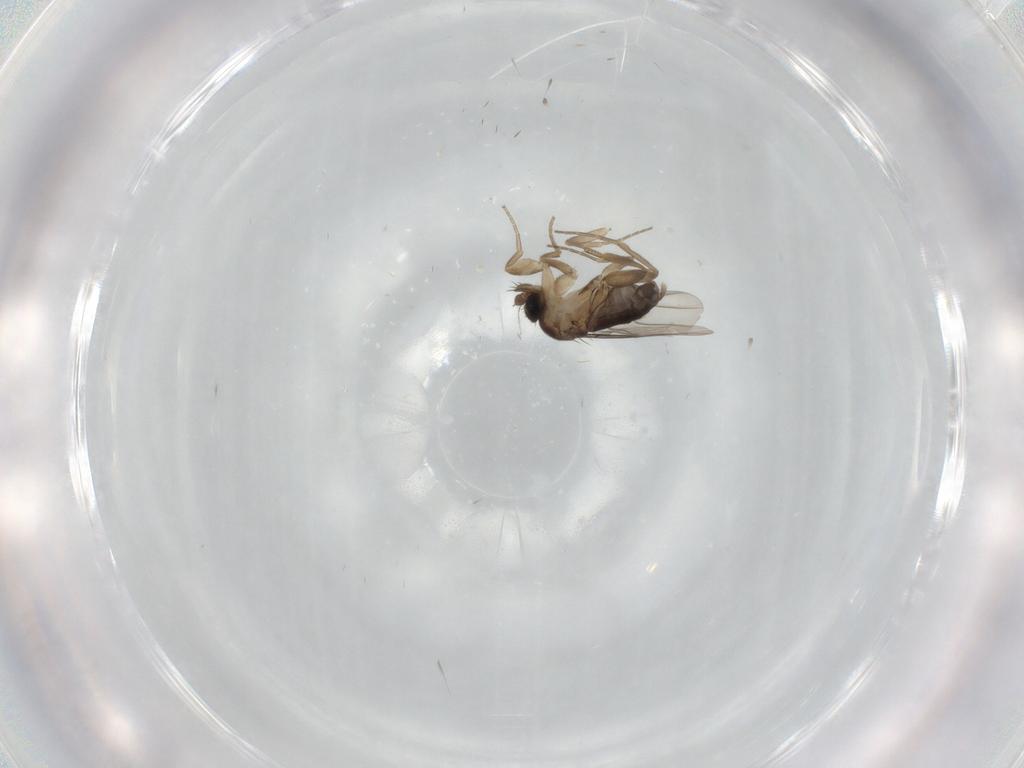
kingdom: Animalia
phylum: Arthropoda
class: Insecta
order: Diptera
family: Phoridae
